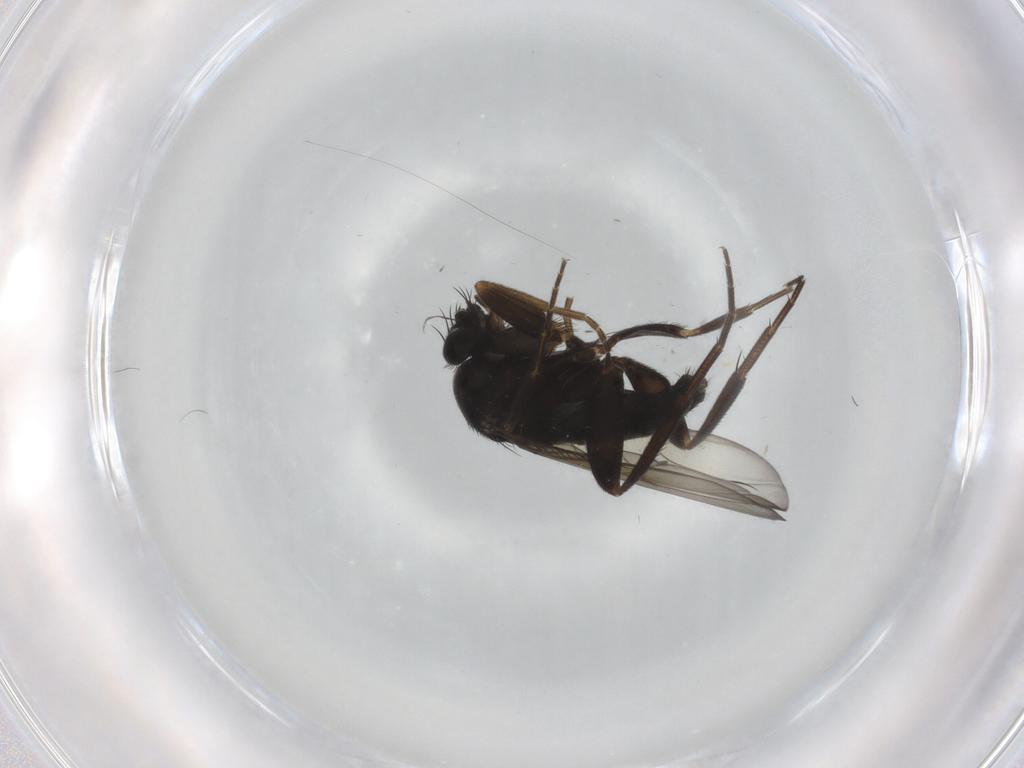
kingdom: Animalia
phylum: Arthropoda
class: Insecta
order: Diptera
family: Phoridae
